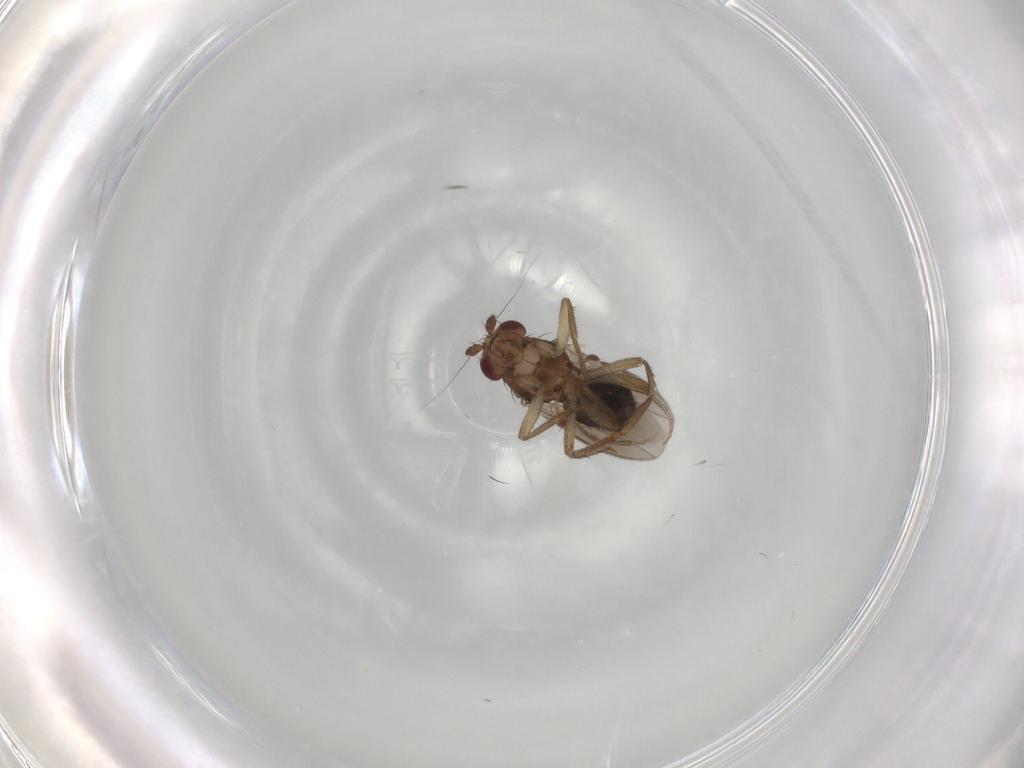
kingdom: Animalia
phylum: Arthropoda
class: Insecta
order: Diptera
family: Sphaeroceridae
